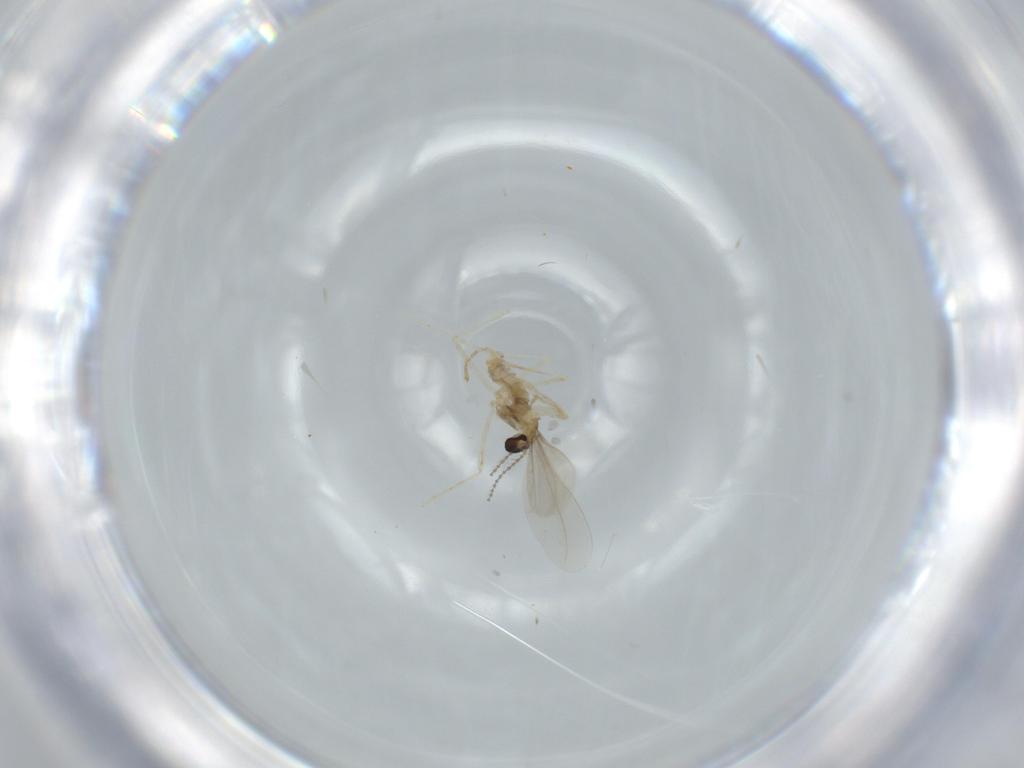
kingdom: Animalia
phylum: Arthropoda
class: Insecta
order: Diptera
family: Cecidomyiidae
